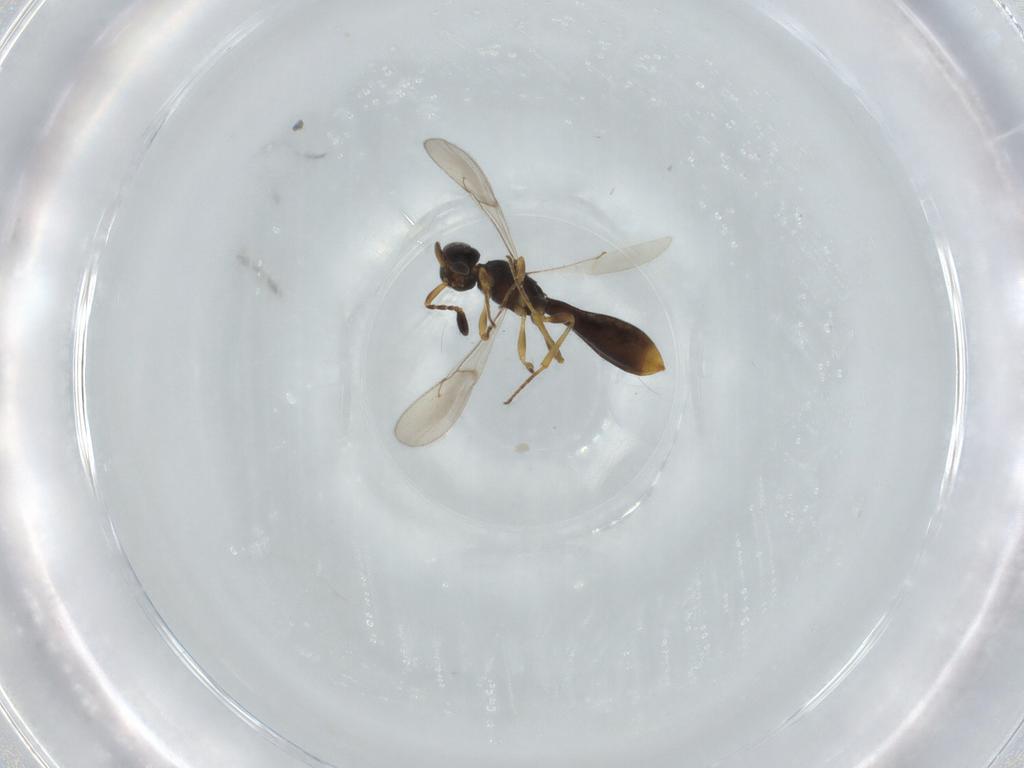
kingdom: Animalia
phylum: Arthropoda
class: Insecta
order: Hymenoptera
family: Scelionidae
